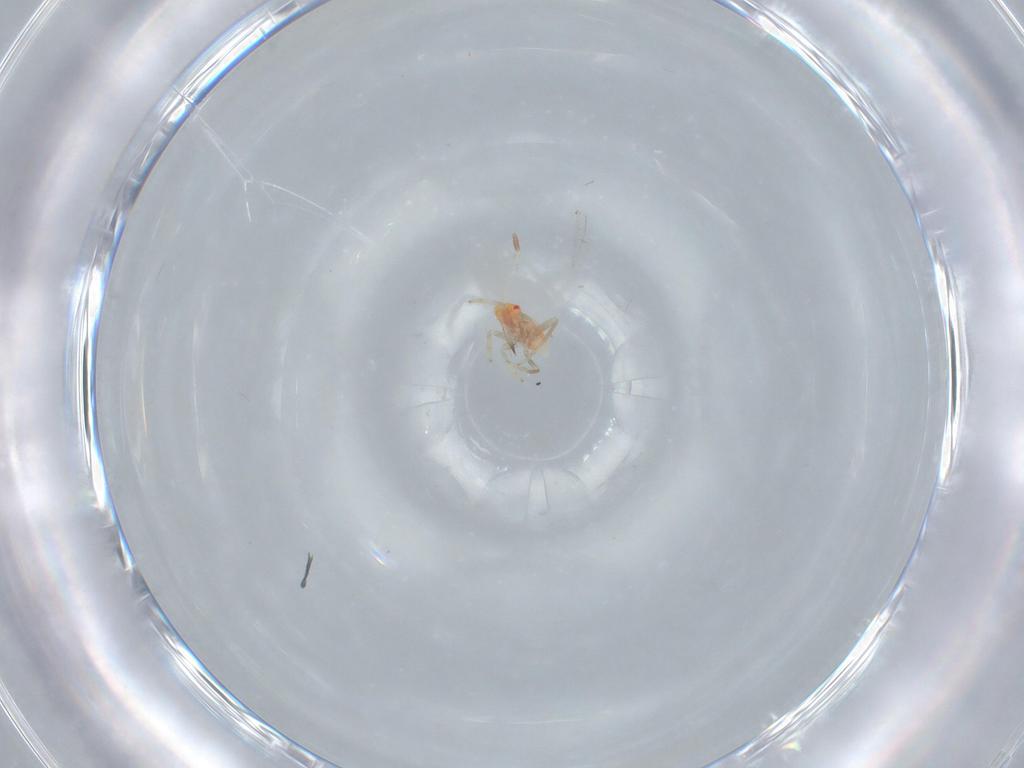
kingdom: Animalia
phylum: Arthropoda
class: Insecta
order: Hemiptera
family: Miridae
